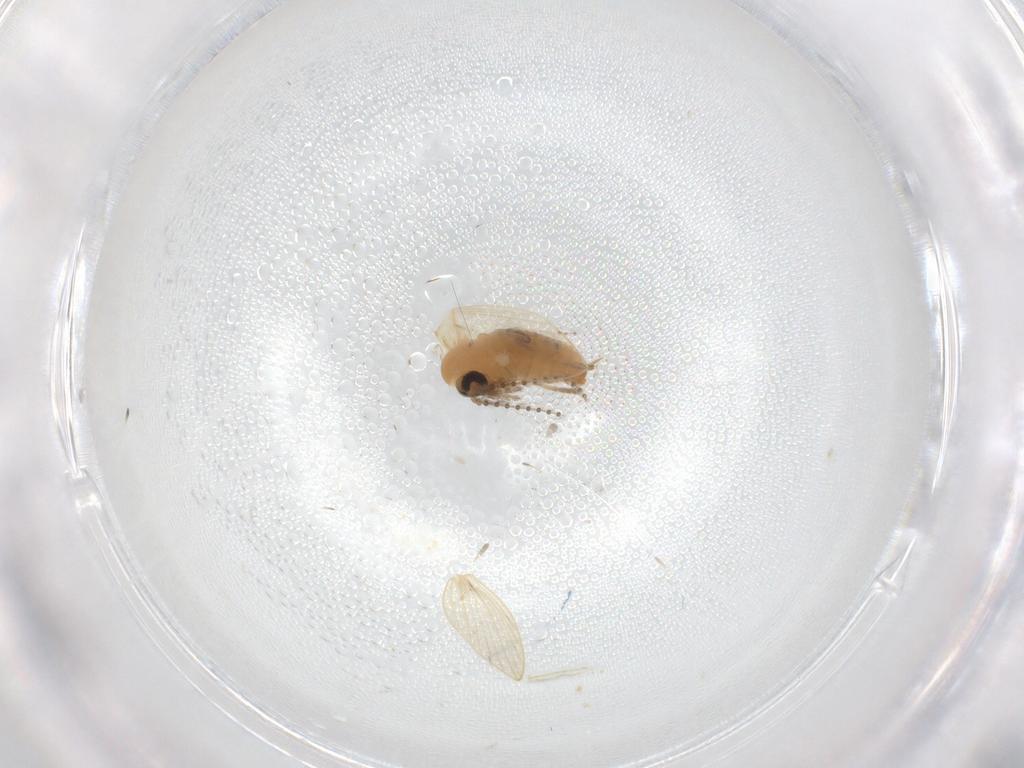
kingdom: Animalia
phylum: Arthropoda
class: Insecta
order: Diptera
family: Psychodidae
